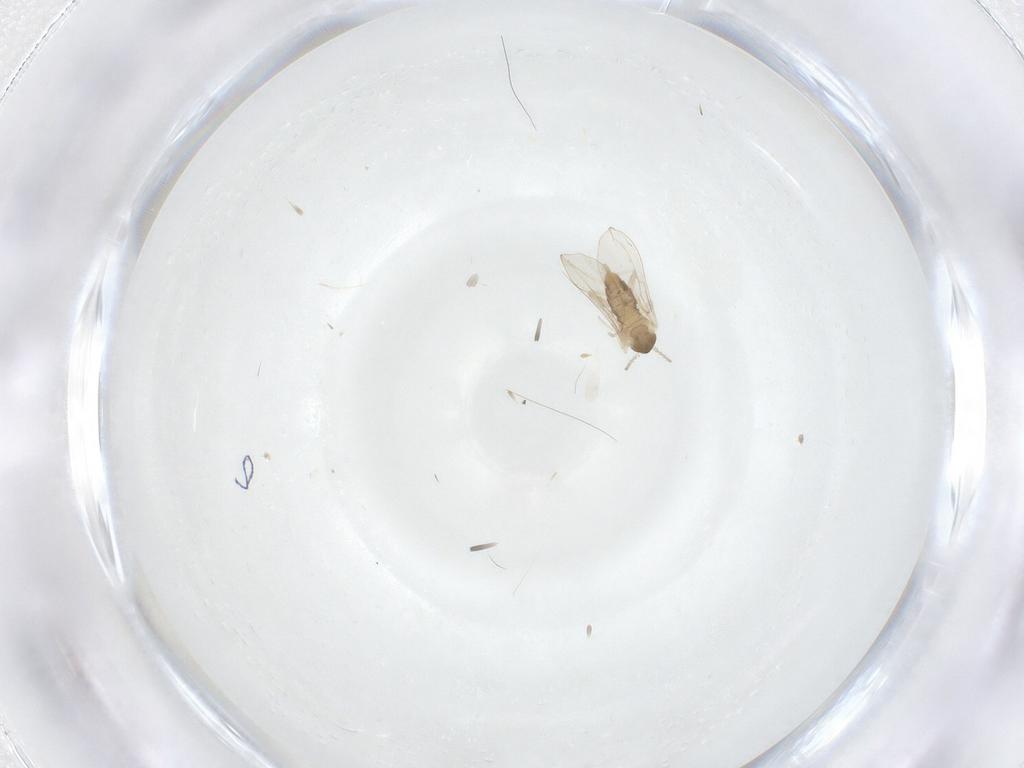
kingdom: Animalia
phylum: Arthropoda
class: Insecta
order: Diptera
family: Cecidomyiidae
